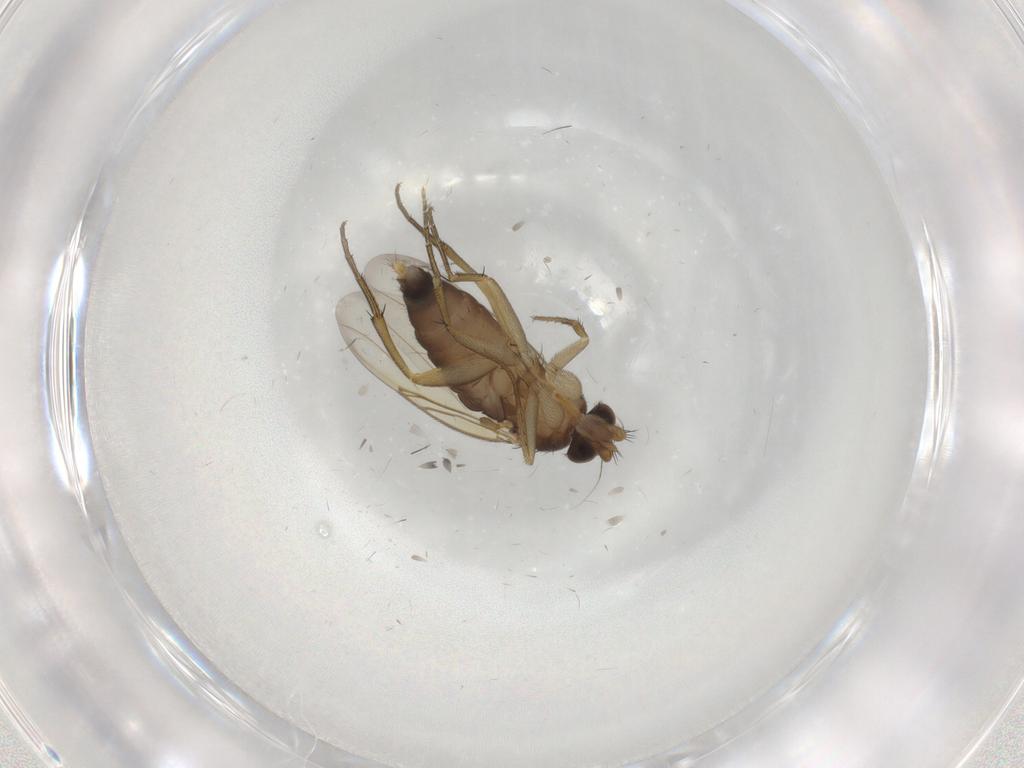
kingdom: Animalia
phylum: Arthropoda
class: Insecta
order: Diptera
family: Phoridae
